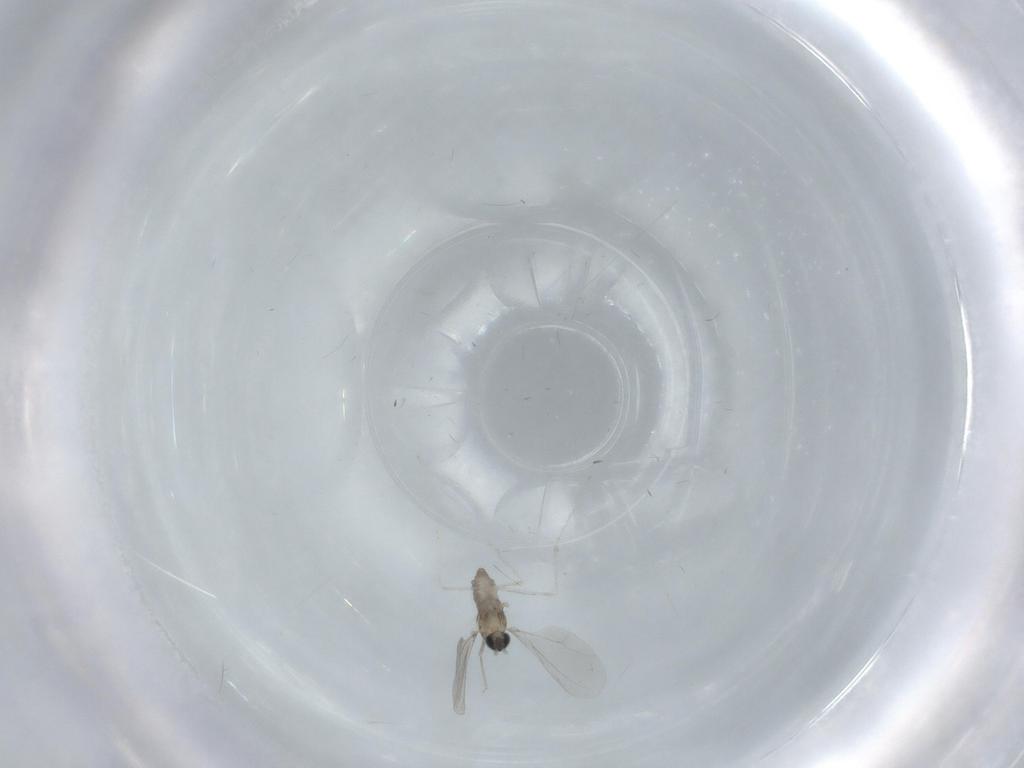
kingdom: Animalia
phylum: Arthropoda
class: Insecta
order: Diptera
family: Cecidomyiidae
